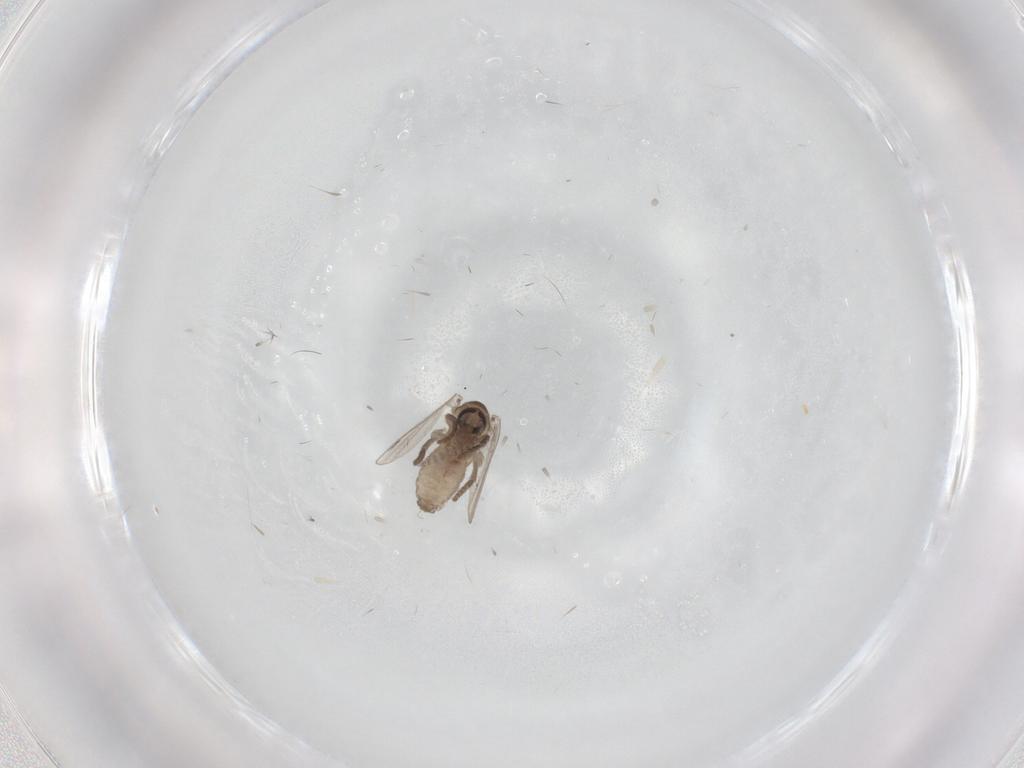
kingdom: Animalia
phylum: Arthropoda
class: Insecta
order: Diptera
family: Psychodidae
